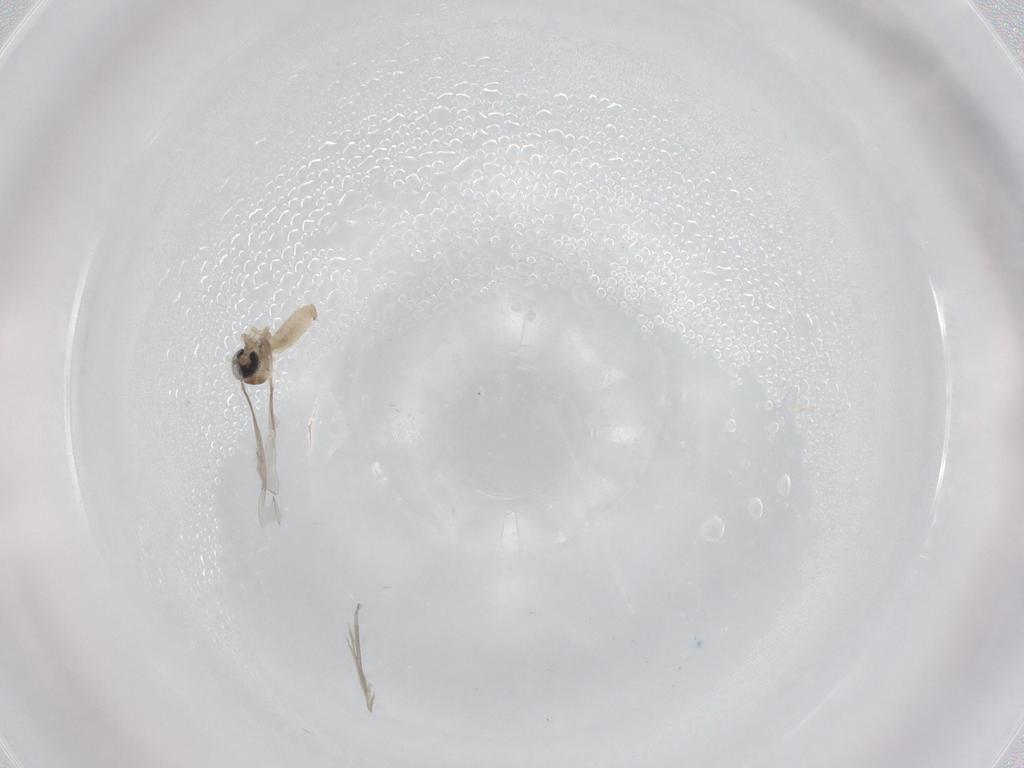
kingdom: Animalia
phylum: Arthropoda
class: Insecta
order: Diptera
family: Cecidomyiidae
